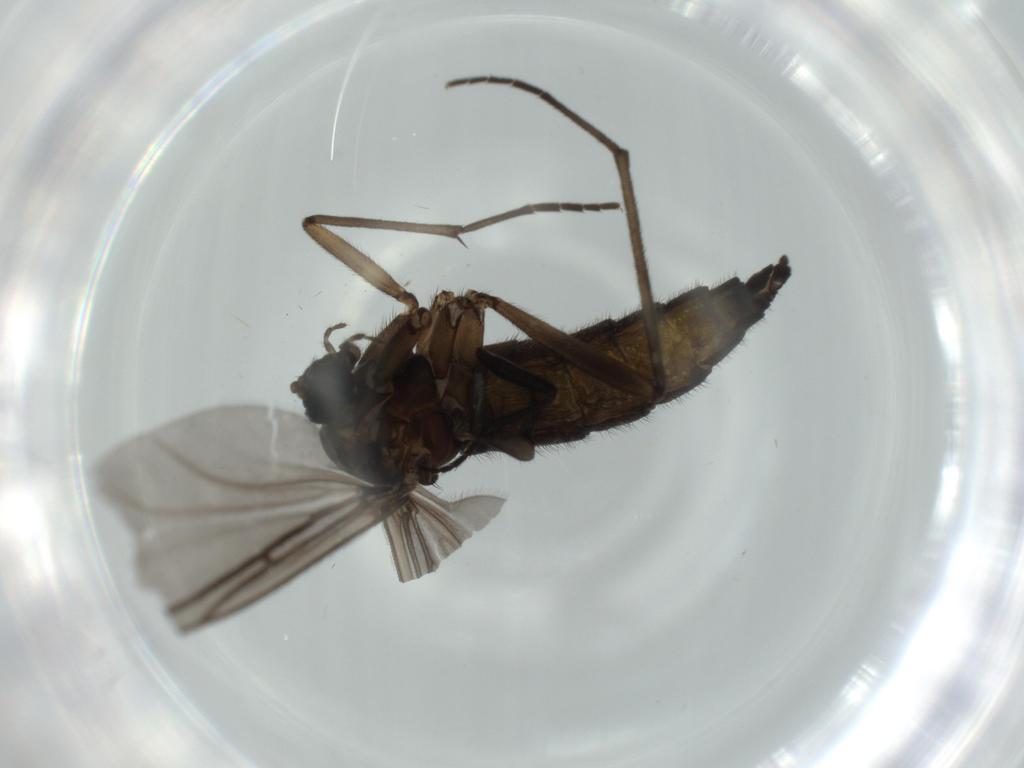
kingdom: Animalia
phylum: Arthropoda
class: Insecta
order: Diptera
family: Sciaridae
